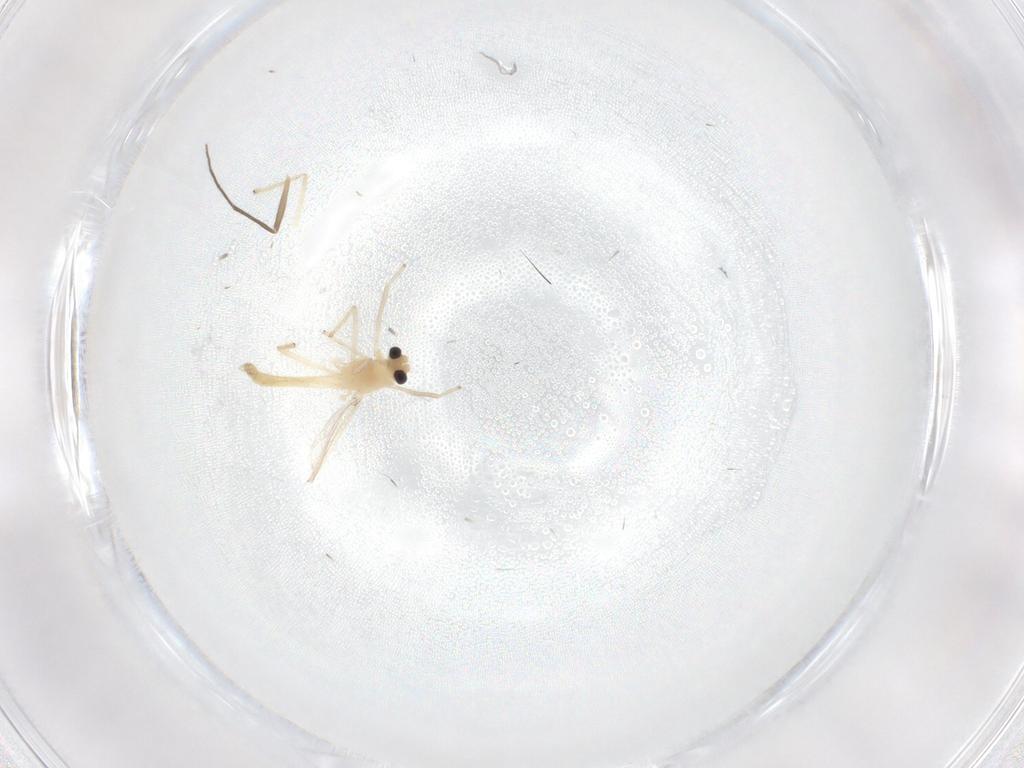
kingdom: Animalia
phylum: Arthropoda
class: Insecta
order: Diptera
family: Chironomidae
